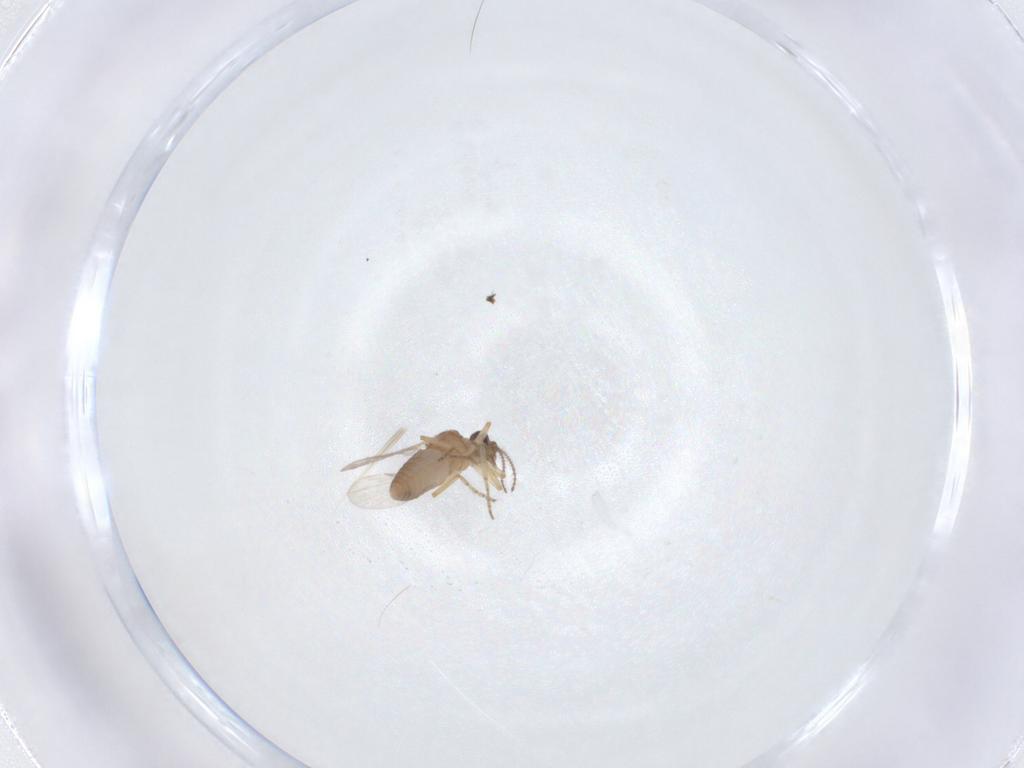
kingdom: Animalia
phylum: Arthropoda
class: Insecta
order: Diptera
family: Ceratopogonidae
